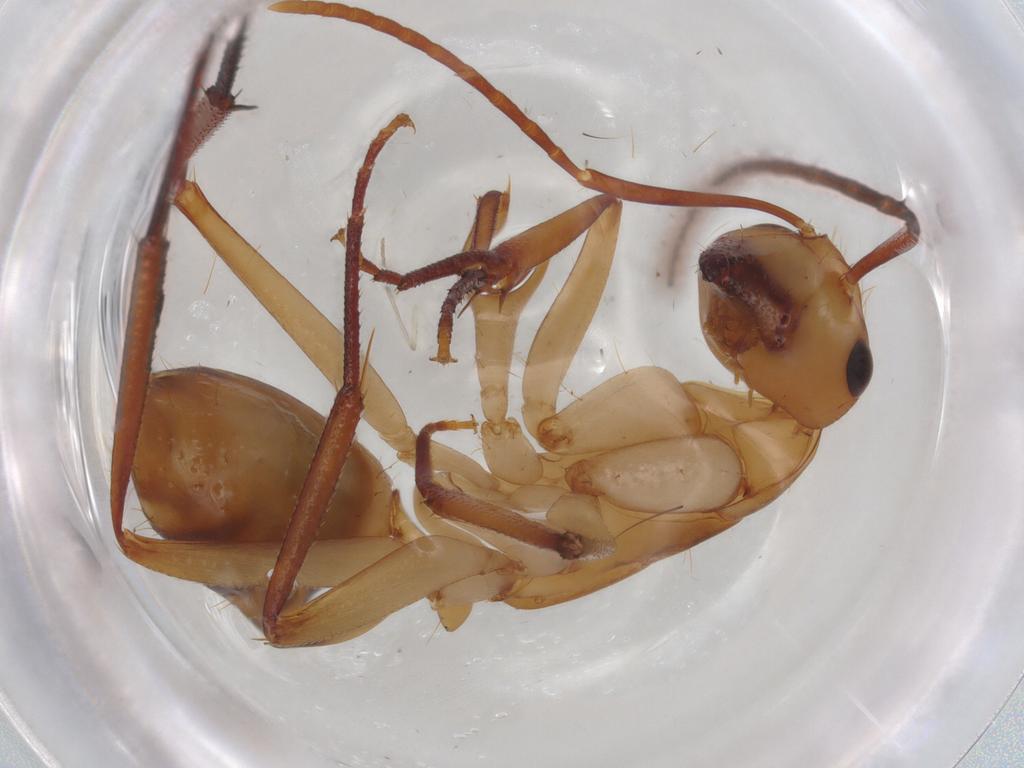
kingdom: Animalia
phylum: Arthropoda
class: Insecta
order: Hymenoptera
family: Formicidae
